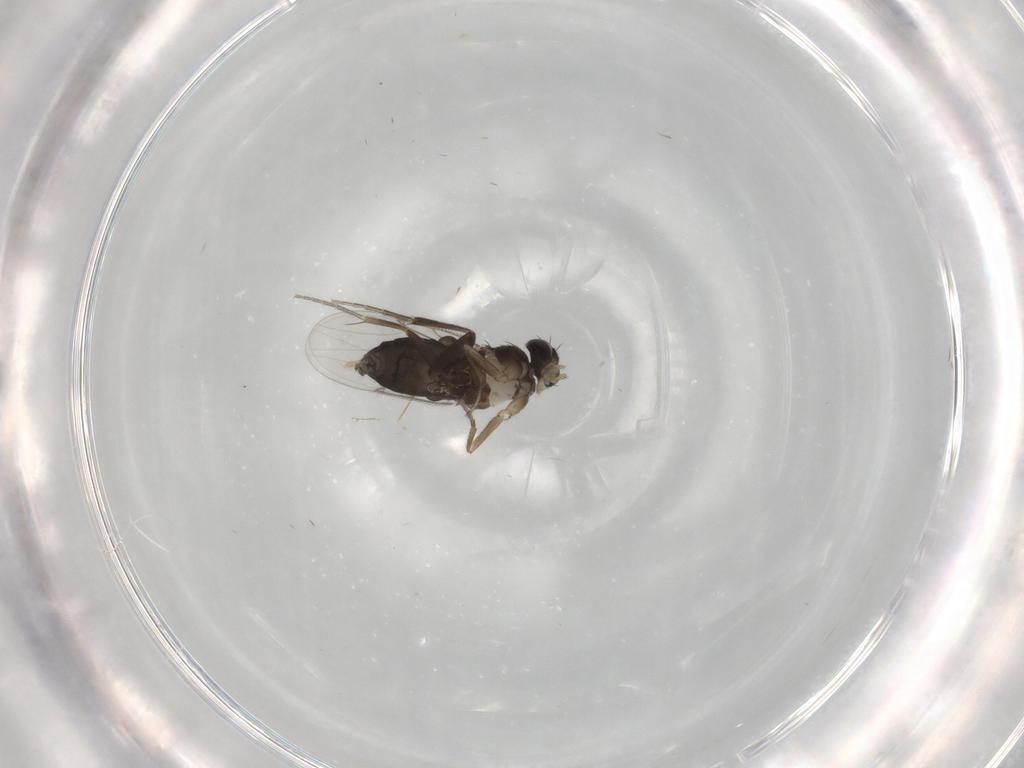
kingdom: Animalia
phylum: Arthropoda
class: Insecta
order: Diptera
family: Phoridae
